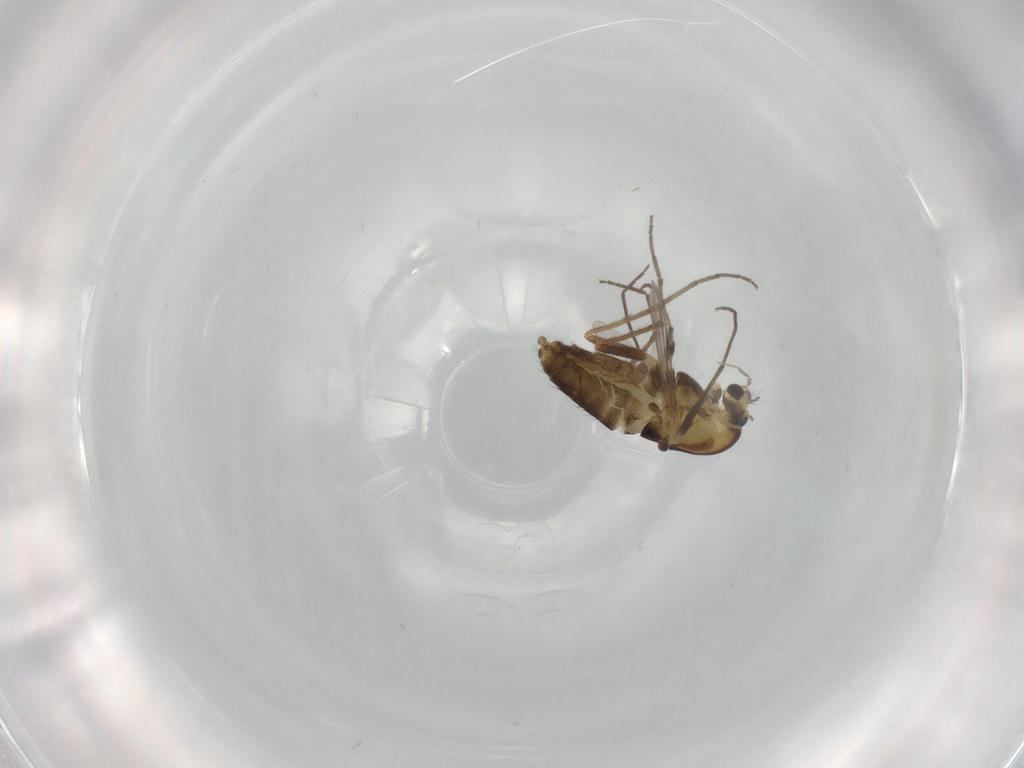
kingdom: Animalia
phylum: Arthropoda
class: Insecta
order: Diptera
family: Chironomidae
